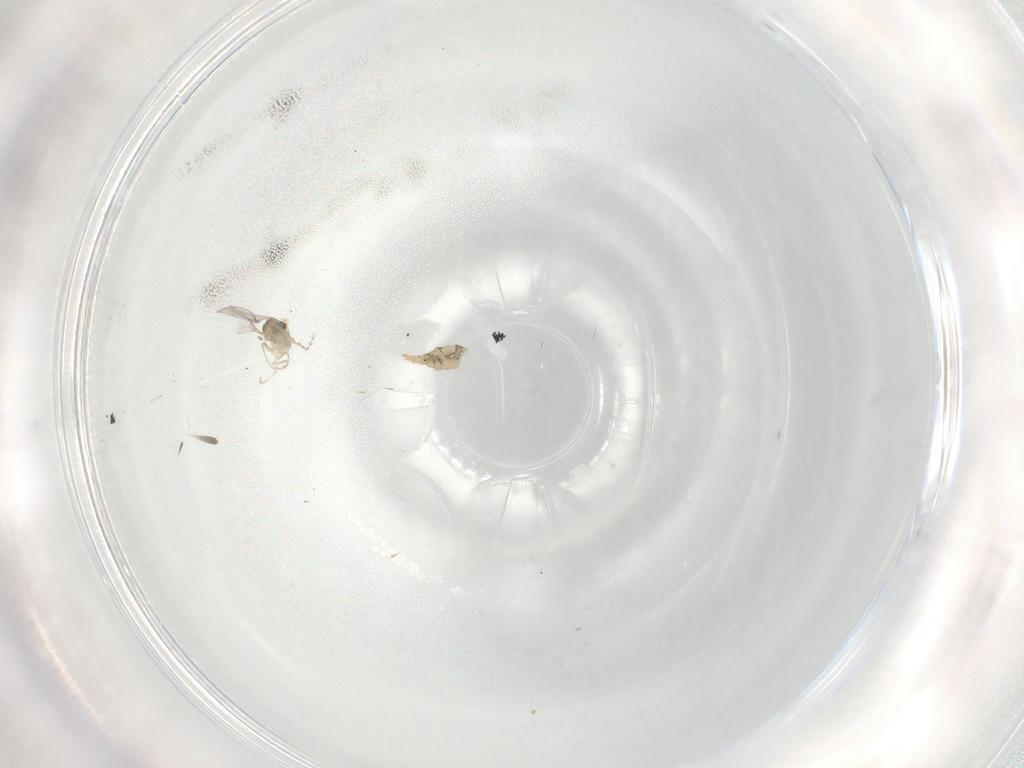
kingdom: Animalia
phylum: Arthropoda
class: Insecta
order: Diptera
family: Cecidomyiidae
